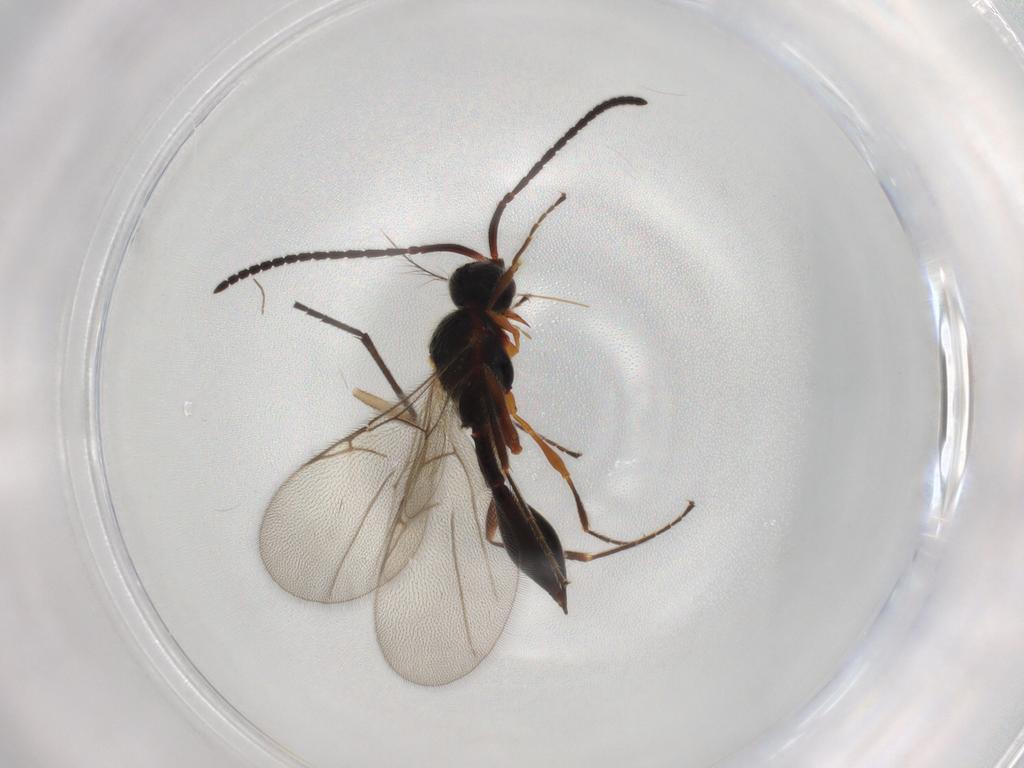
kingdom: Animalia
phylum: Arthropoda
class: Insecta
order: Hymenoptera
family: Diapriidae
